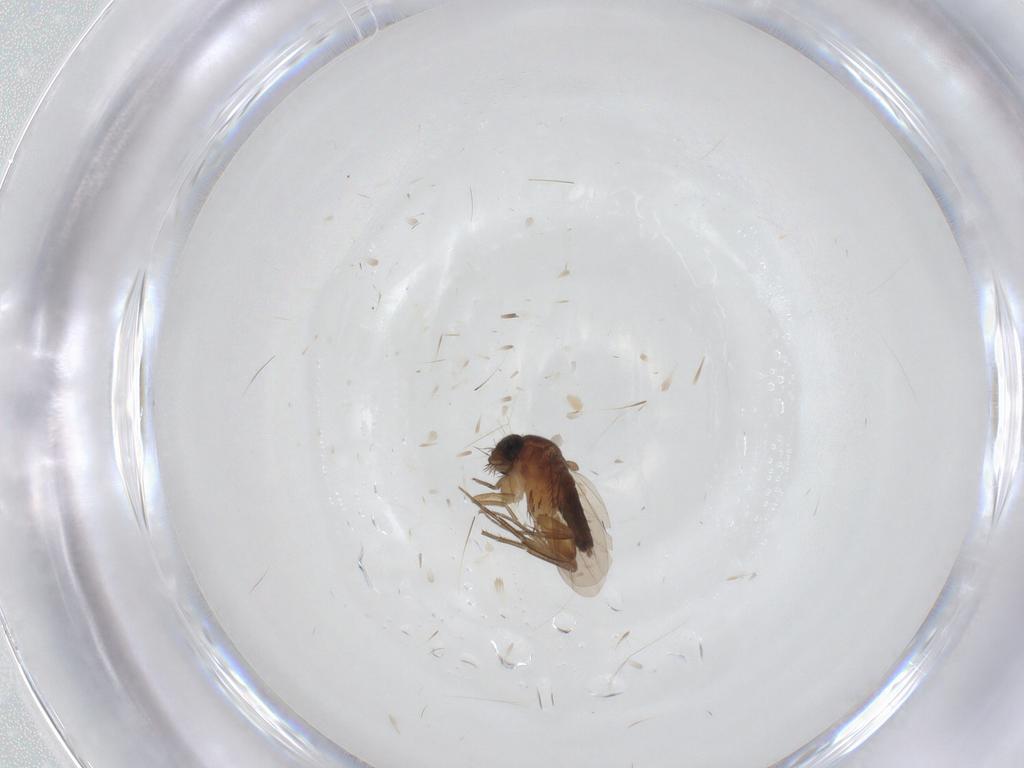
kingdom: Animalia
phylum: Arthropoda
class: Insecta
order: Diptera
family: Phoridae
